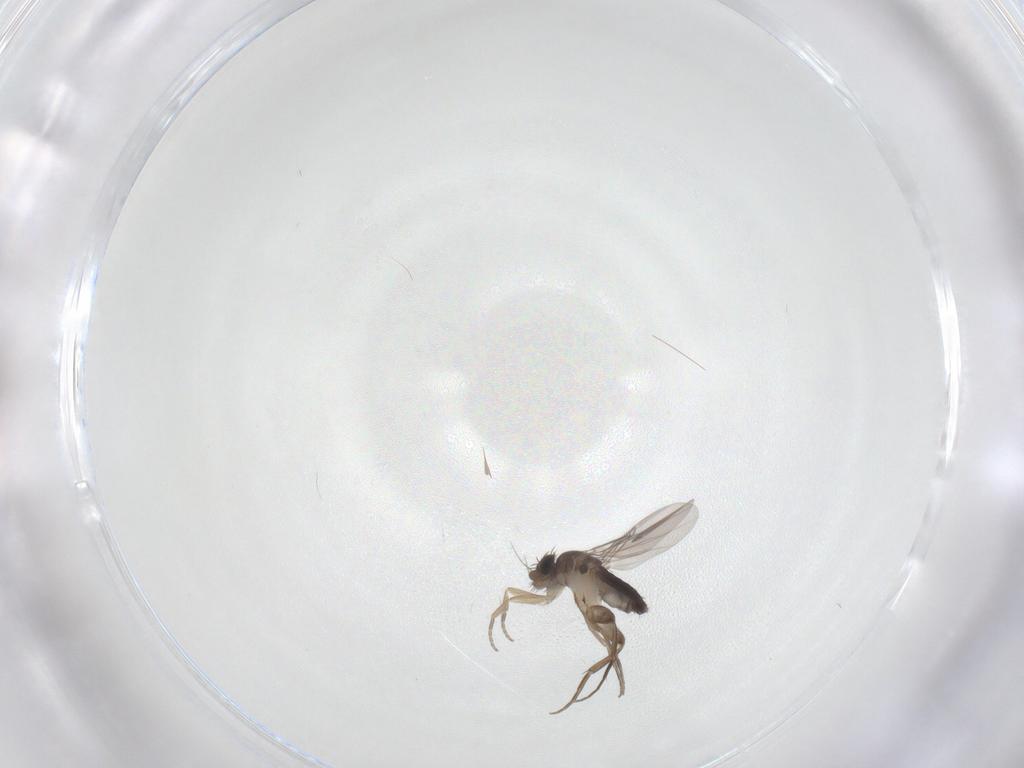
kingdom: Animalia
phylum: Arthropoda
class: Insecta
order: Diptera
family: Phoridae
